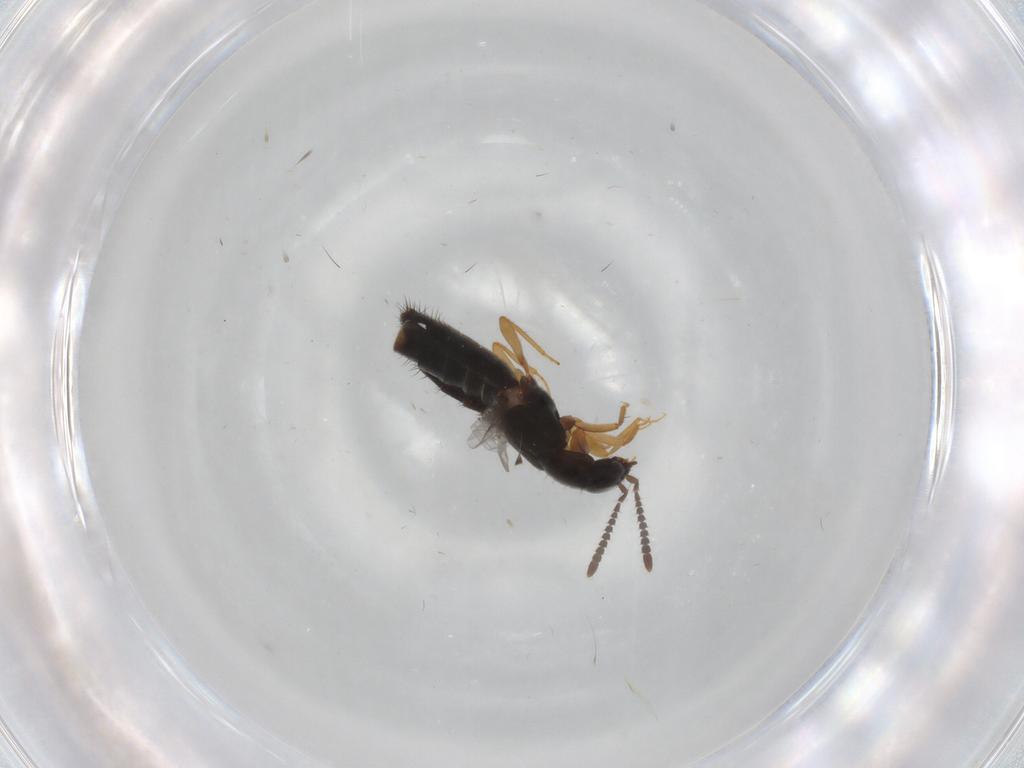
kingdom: Animalia
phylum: Arthropoda
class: Insecta
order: Coleoptera
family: Staphylinidae
